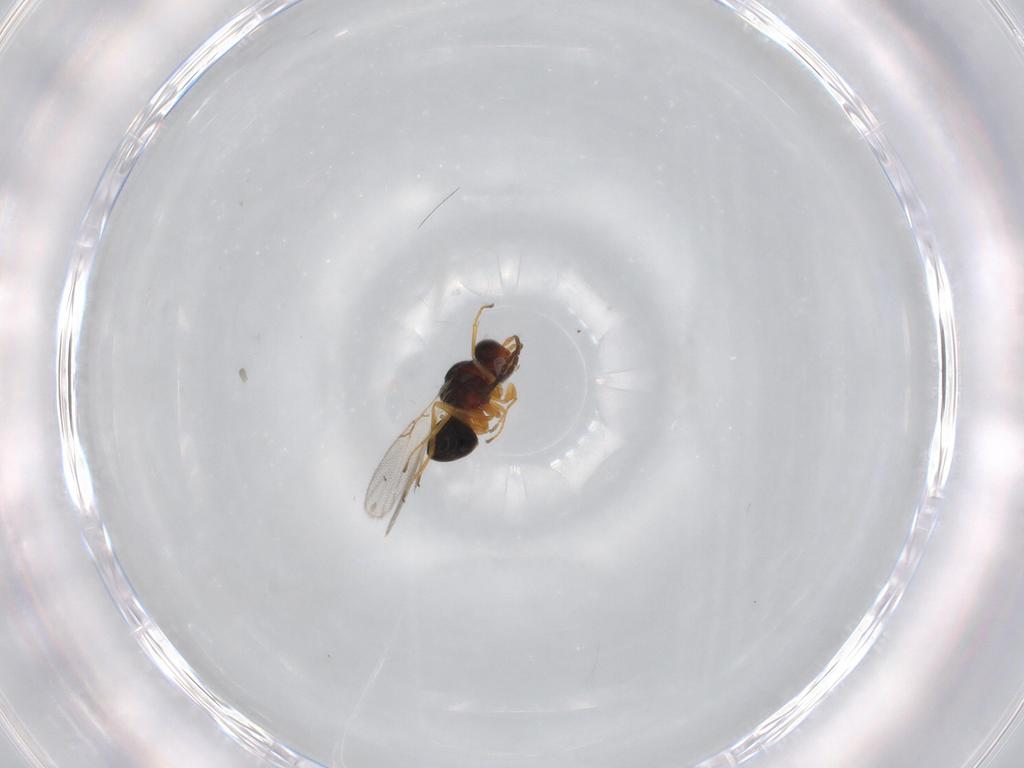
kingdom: Animalia
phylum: Arthropoda
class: Insecta
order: Hymenoptera
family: Figitidae
